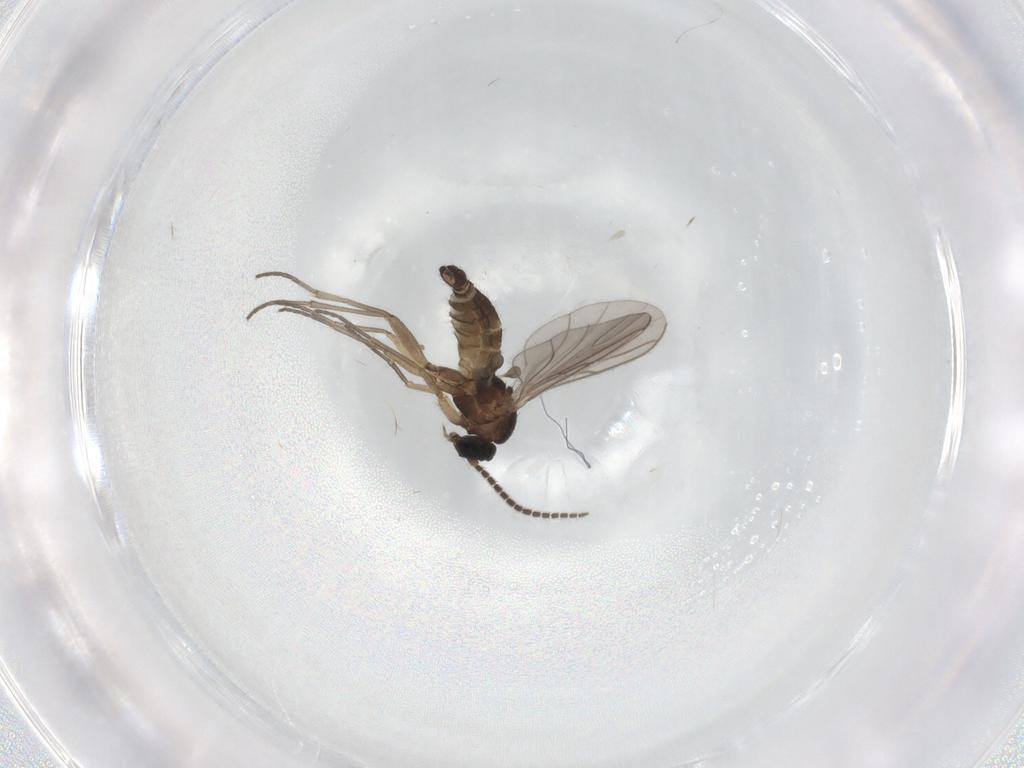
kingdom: Animalia
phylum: Arthropoda
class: Insecta
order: Diptera
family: Sciaridae
